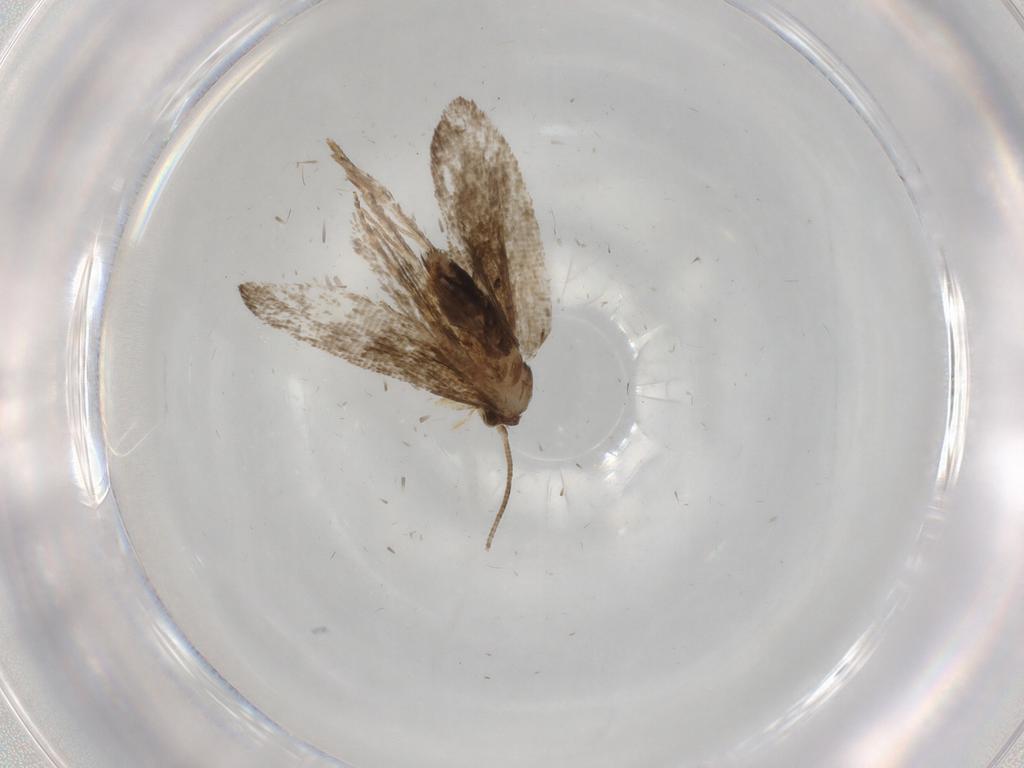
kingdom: Animalia
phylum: Arthropoda
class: Insecta
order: Lepidoptera
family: Tineidae
